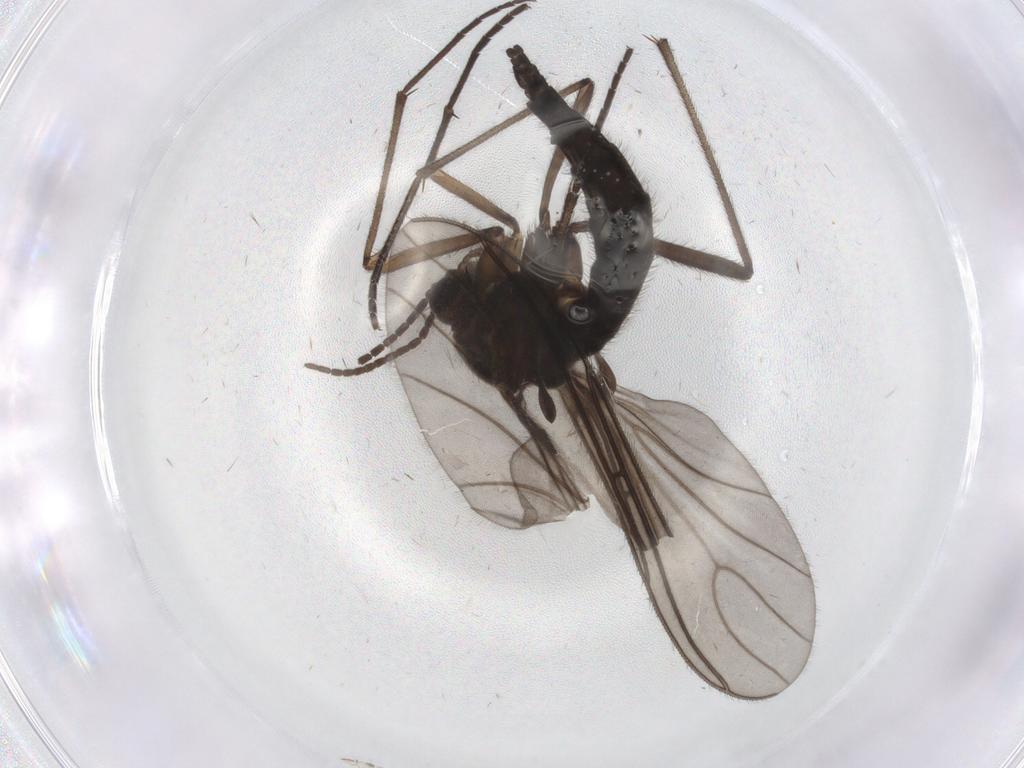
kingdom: Animalia
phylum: Arthropoda
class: Insecta
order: Diptera
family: Sciaridae
